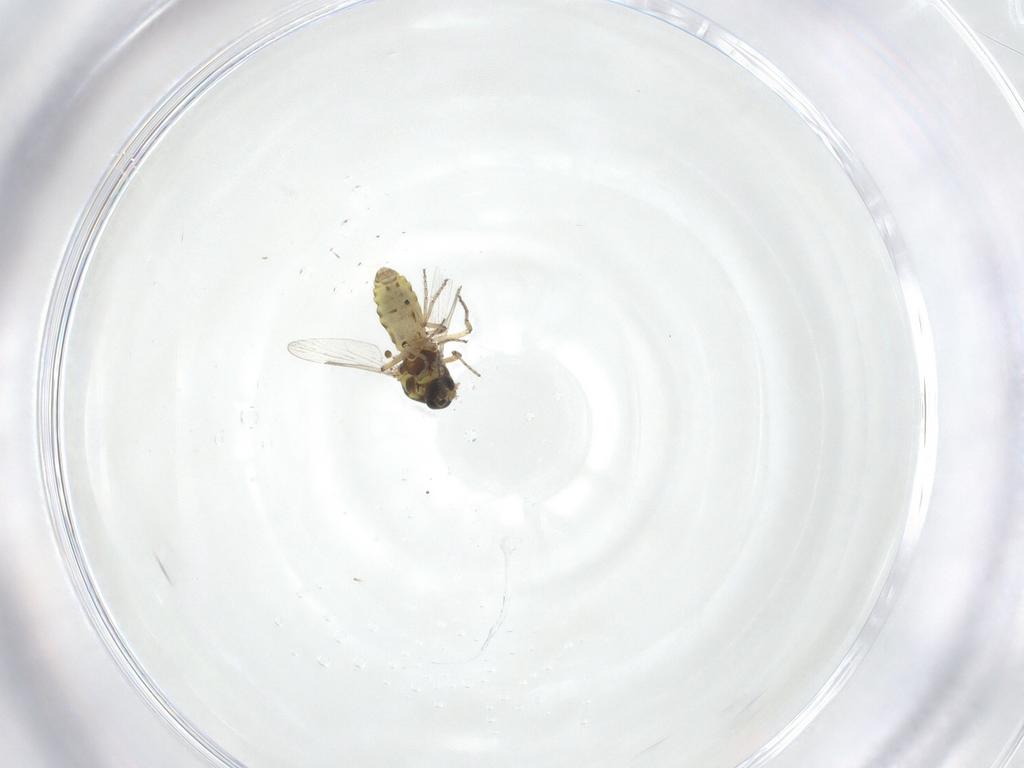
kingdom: Animalia
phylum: Arthropoda
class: Insecta
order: Diptera
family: Ceratopogonidae
